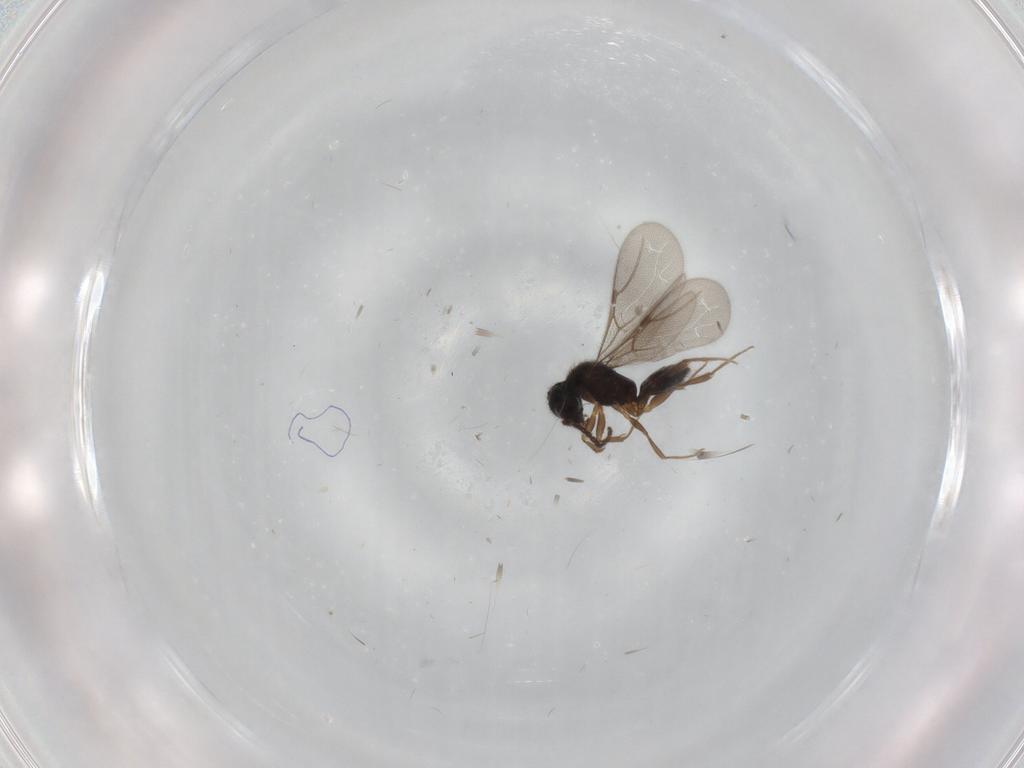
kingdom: Animalia
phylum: Arthropoda
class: Insecta
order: Hymenoptera
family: Bethylidae
